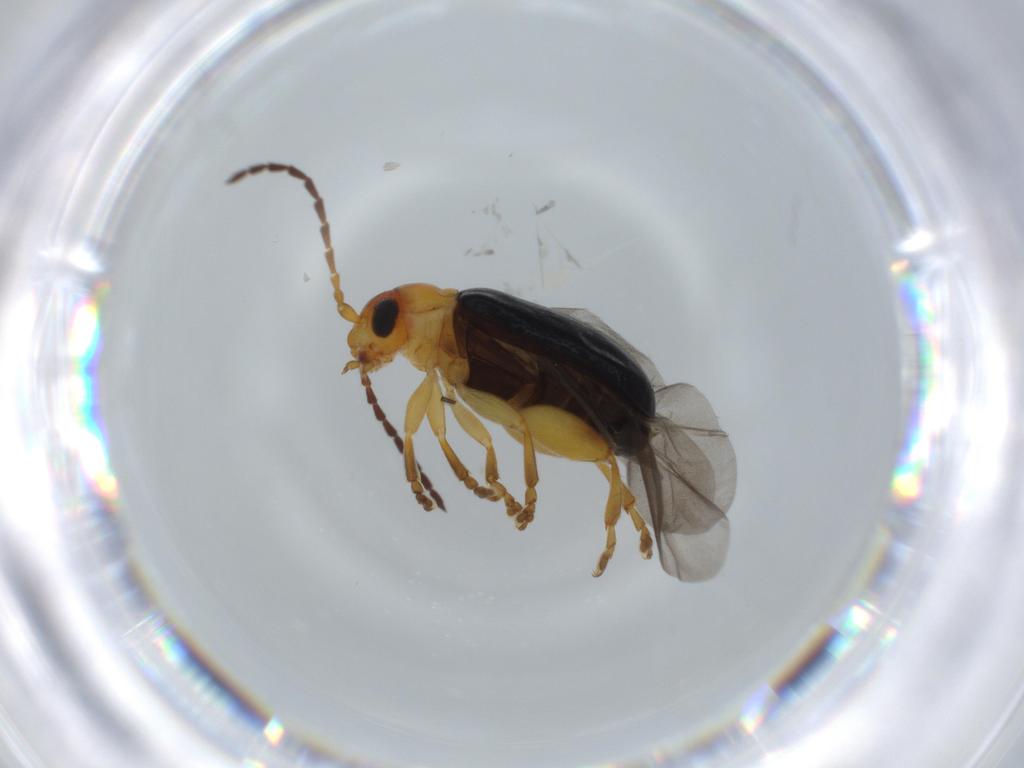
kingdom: Animalia
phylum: Arthropoda
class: Insecta
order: Coleoptera
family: Chrysomelidae
